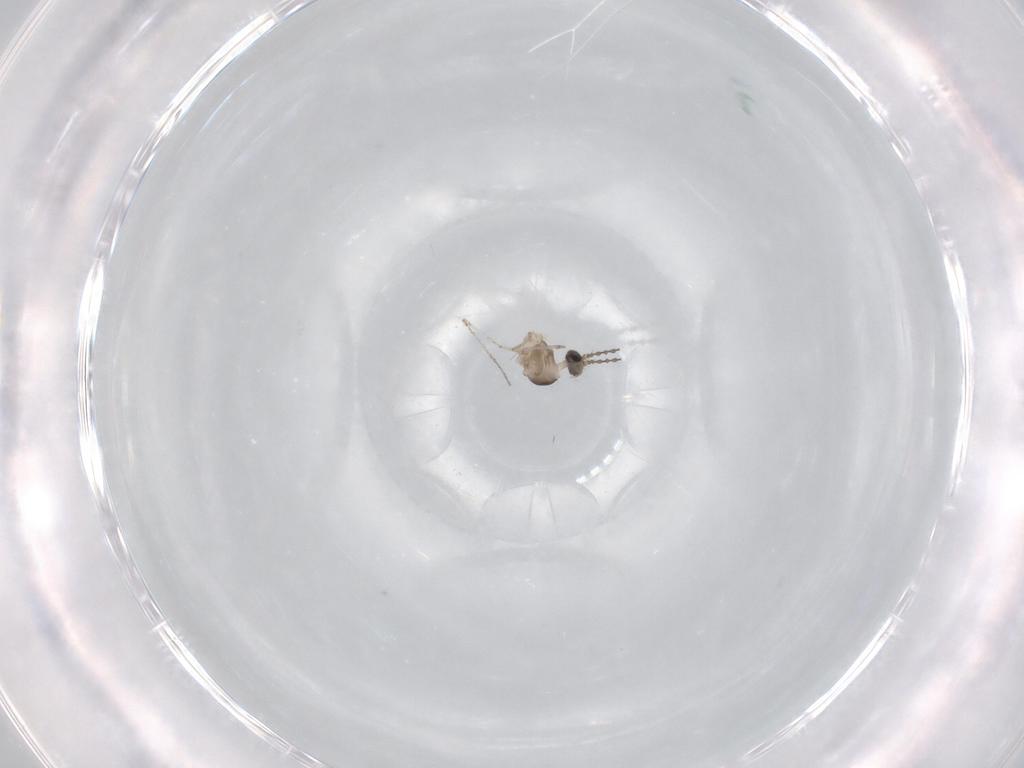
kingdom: Animalia
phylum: Arthropoda
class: Insecta
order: Diptera
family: Cecidomyiidae
